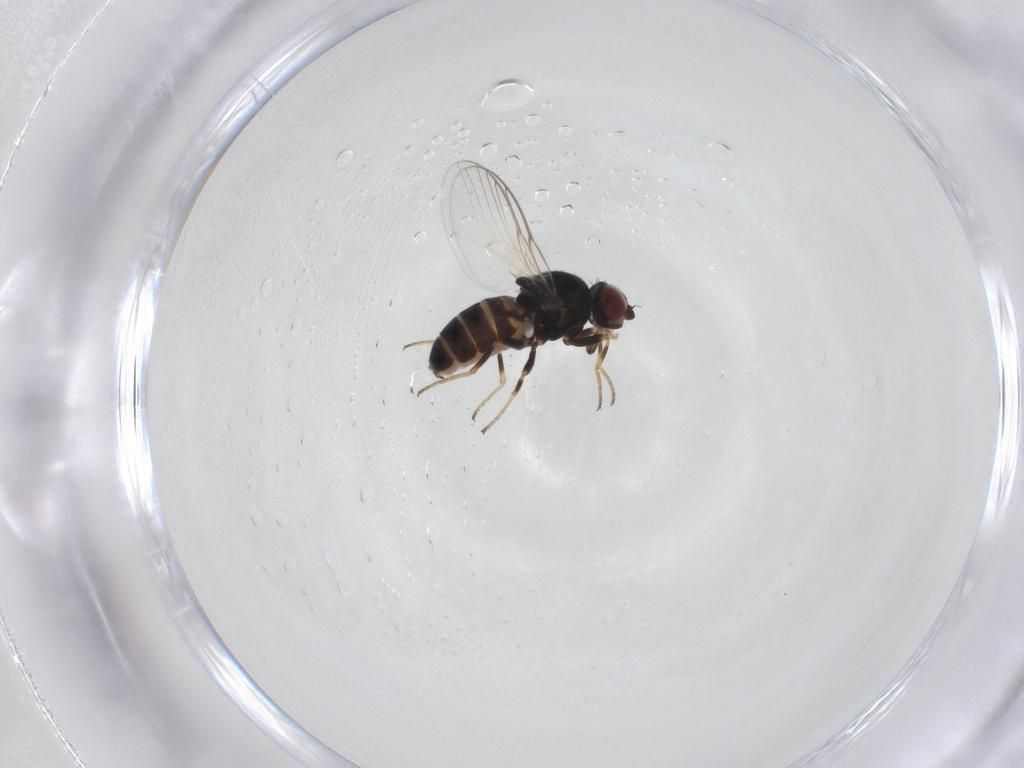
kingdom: Animalia
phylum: Arthropoda
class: Insecta
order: Diptera
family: Chloropidae
